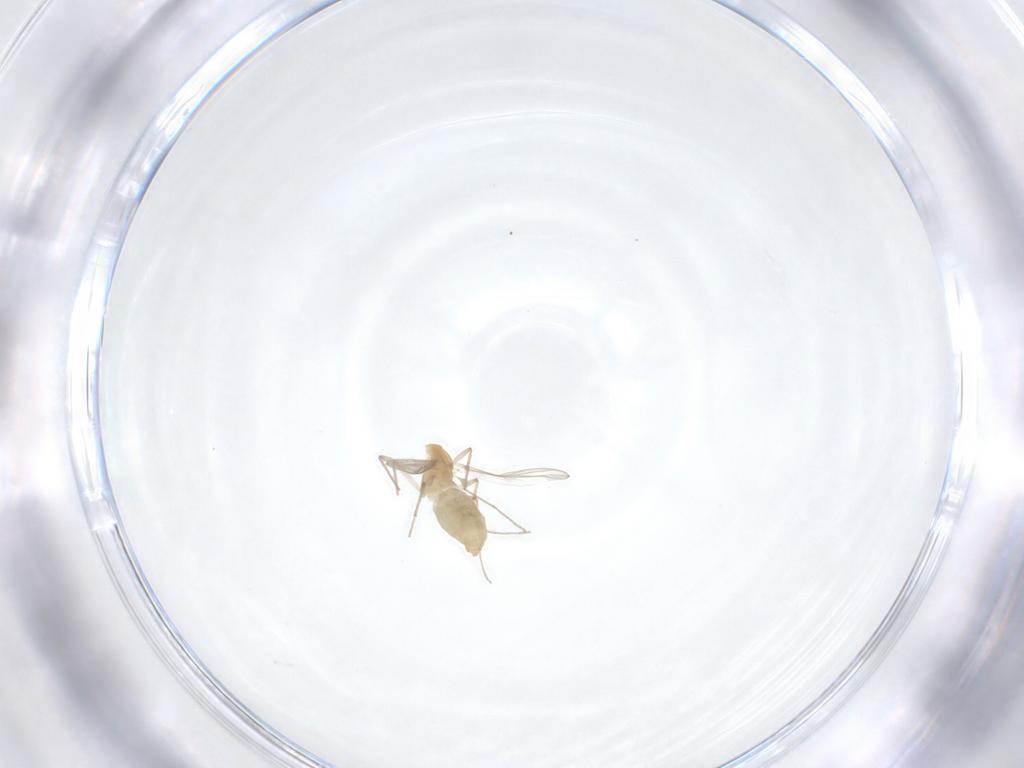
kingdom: Animalia
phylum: Arthropoda
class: Insecta
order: Diptera
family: Chironomidae
